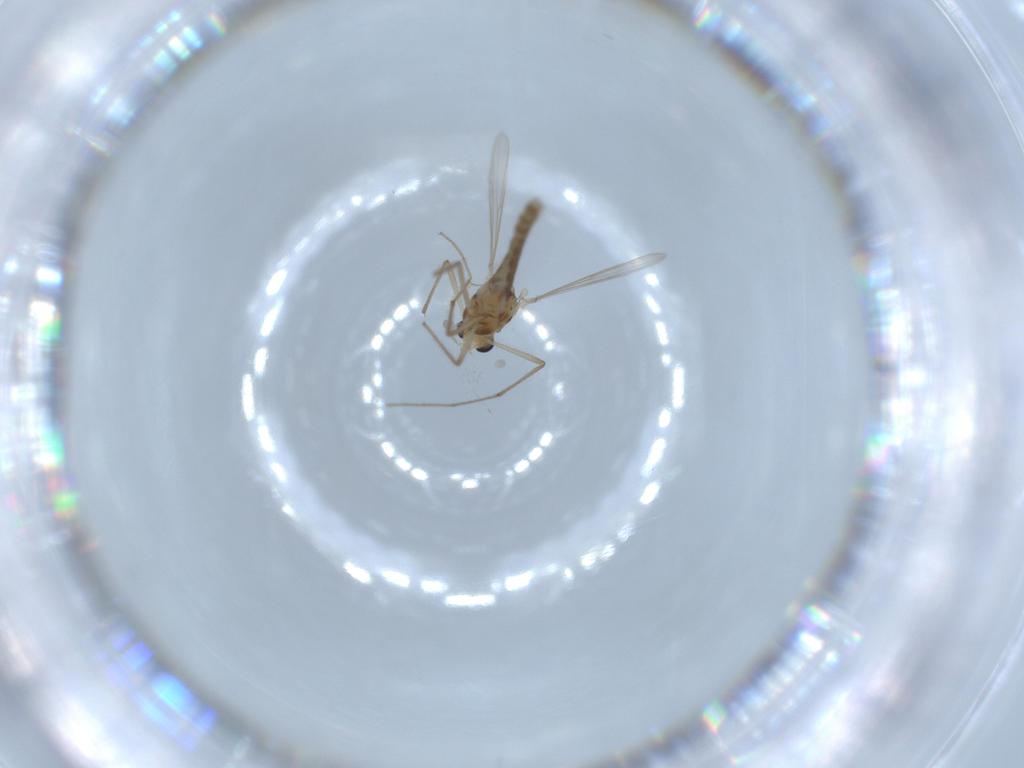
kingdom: Animalia
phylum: Arthropoda
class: Insecta
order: Diptera
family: Chironomidae
